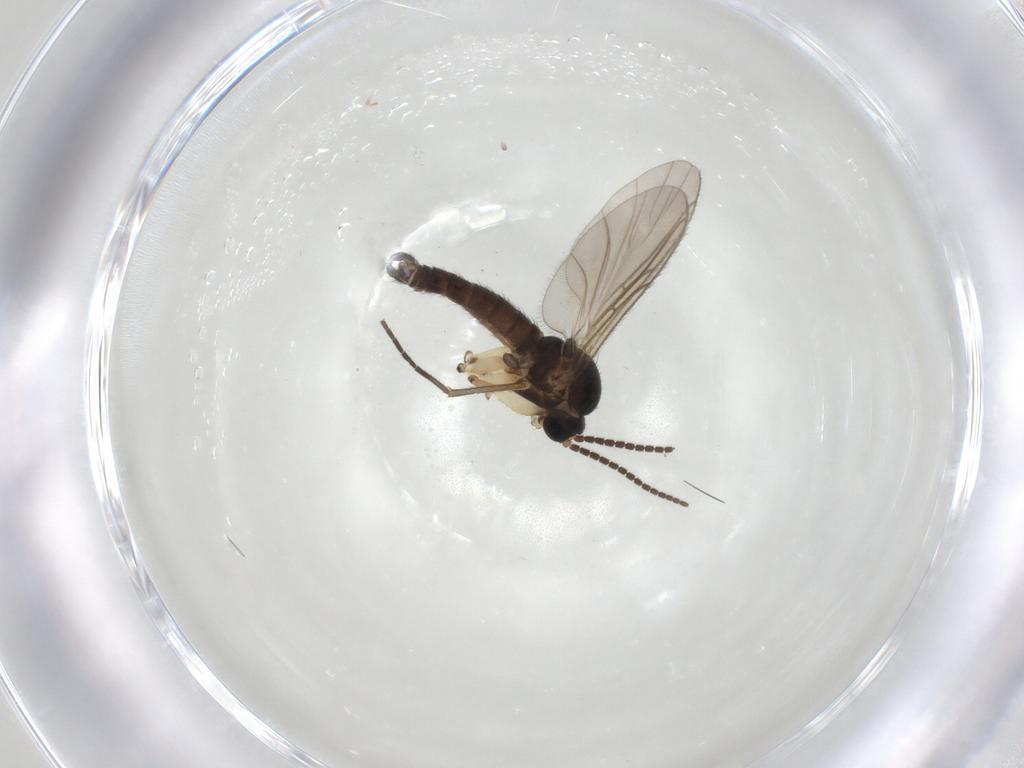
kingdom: Animalia
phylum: Arthropoda
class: Insecta
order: Diptera
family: Sciaridae
